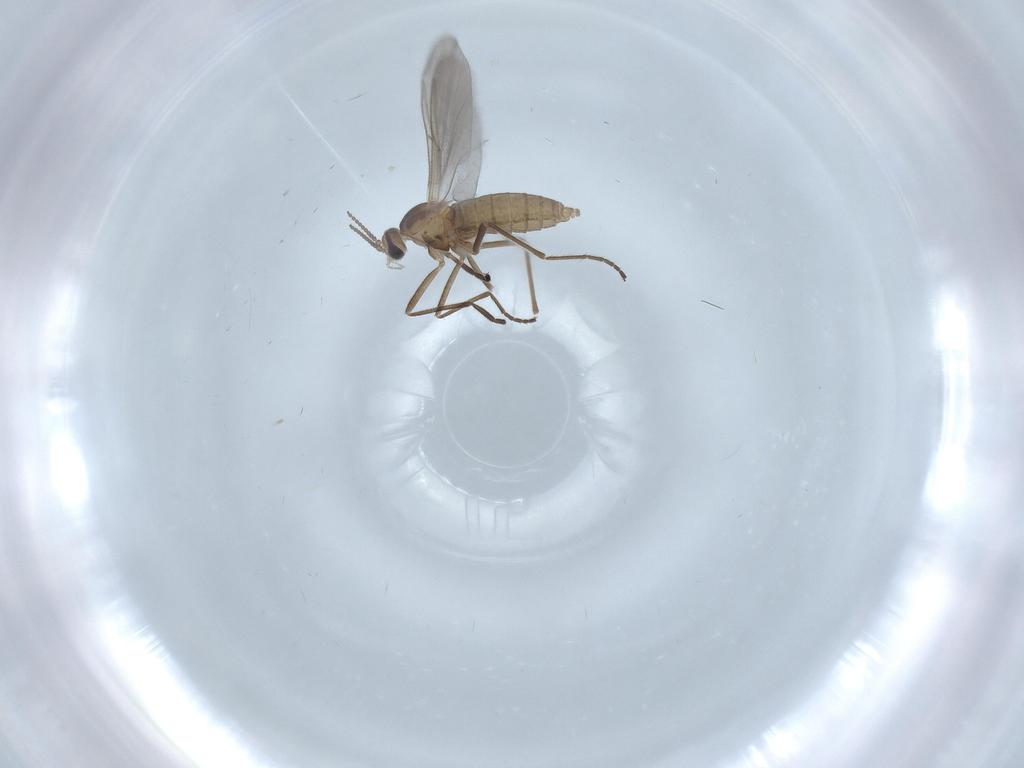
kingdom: Animalia
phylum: Arthropoda
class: Insecta
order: Diptera
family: Cecidomyiidae
